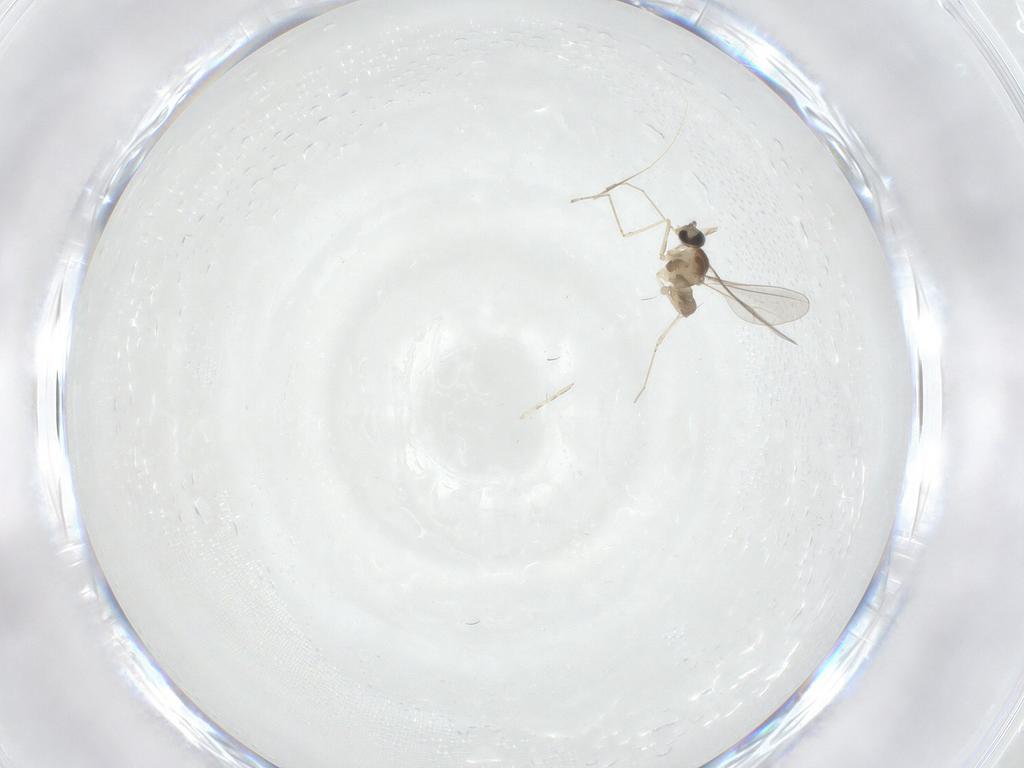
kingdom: Animalia
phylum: Arthropoda
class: Insecta
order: Diptera
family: Cecidomyiidae
